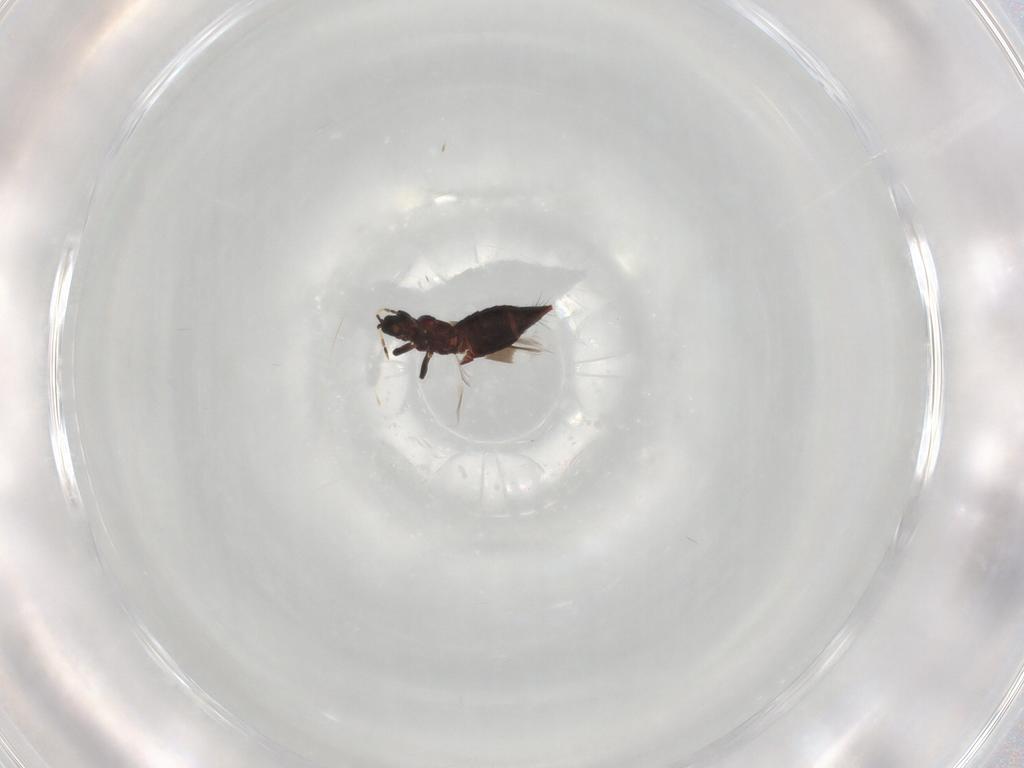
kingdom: Animalia
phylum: Arthropoda
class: Insecta
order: Thysanoptera
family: Aeolothripidae
